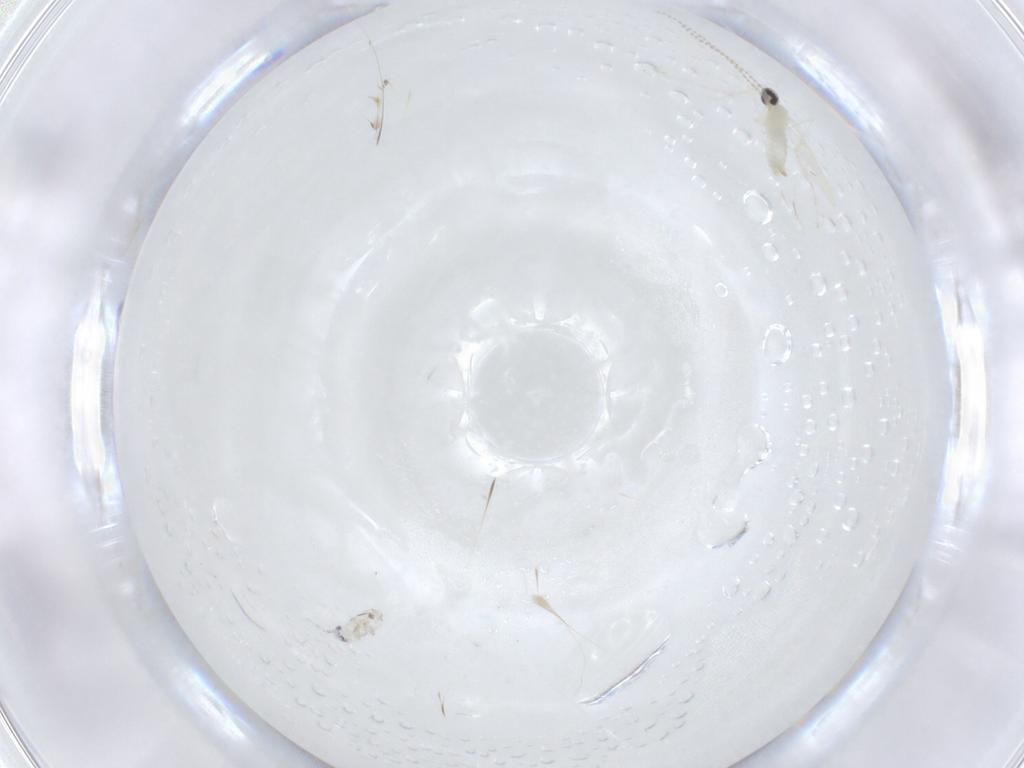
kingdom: Animalia
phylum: Arthropoda
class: Insecta
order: Diptera
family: Cecidomyiidae
